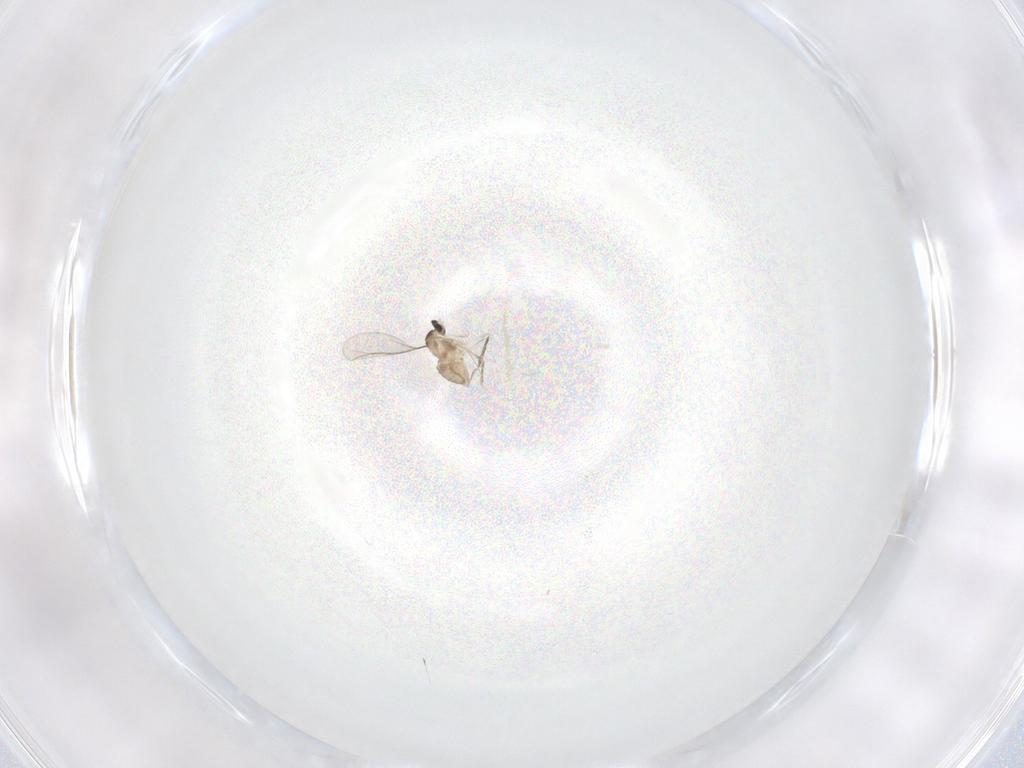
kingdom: Animalia
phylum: Arthropoda
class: Insecta
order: Diptera
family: Cecidomyiidae
